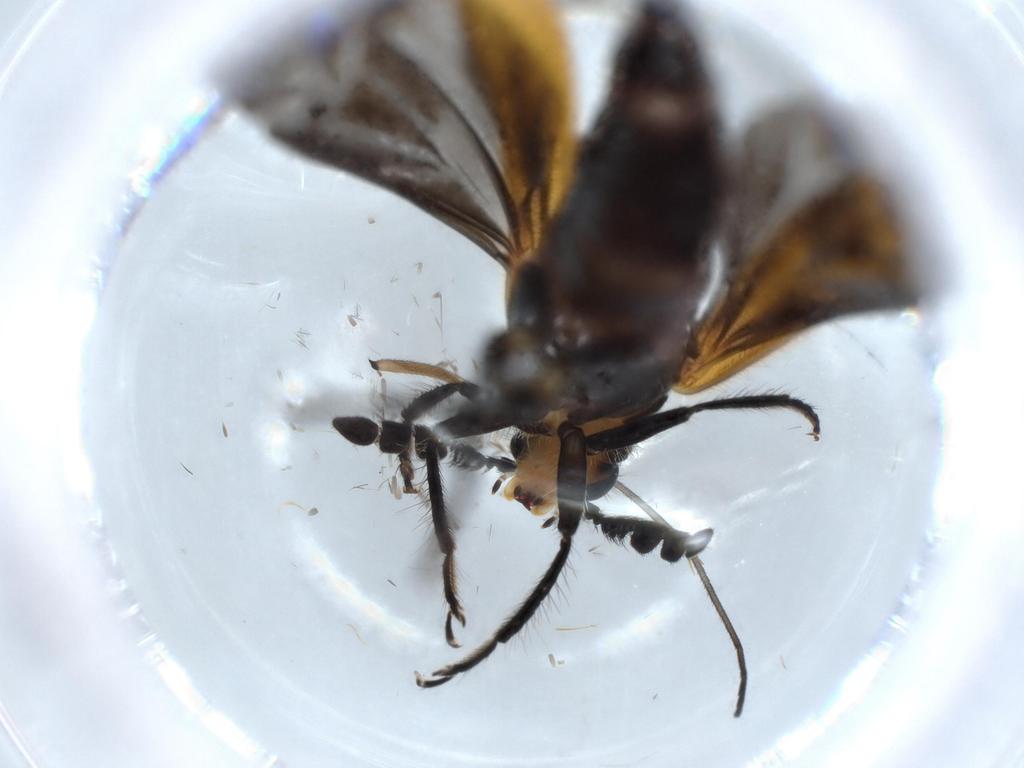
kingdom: Animalia
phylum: Arthropoda
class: Insecta
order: Coleoptera
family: Cleridae
